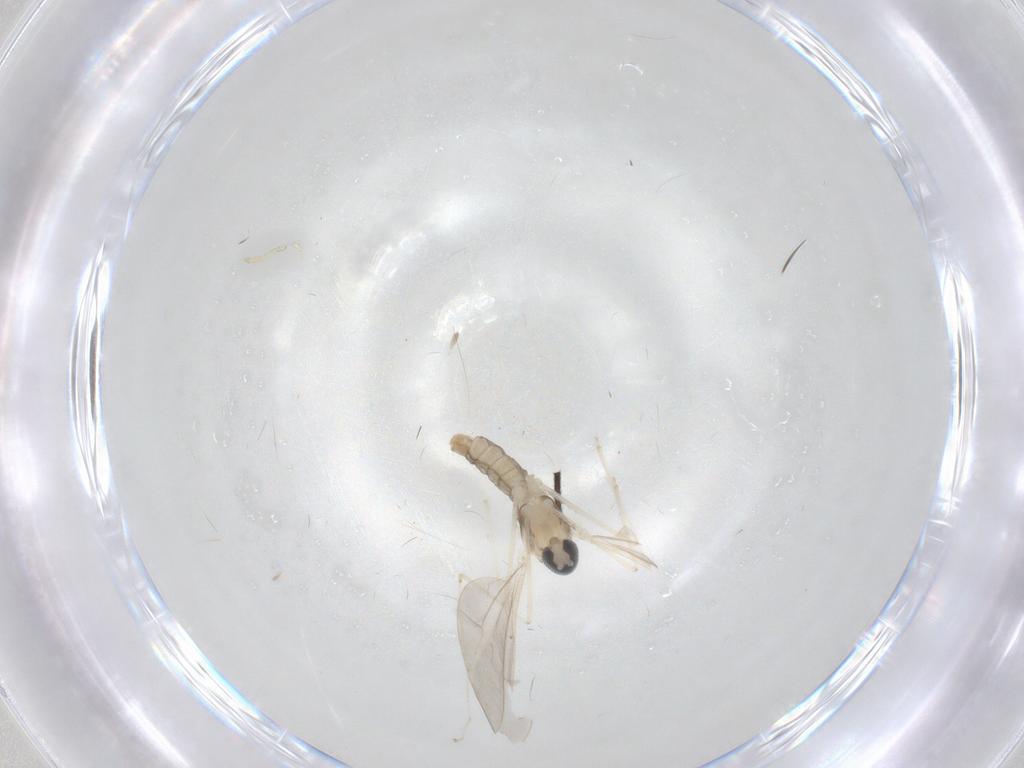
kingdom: Animalia
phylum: Arthropoda
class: Insecta
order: Diptera
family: Cecidomyiidae
